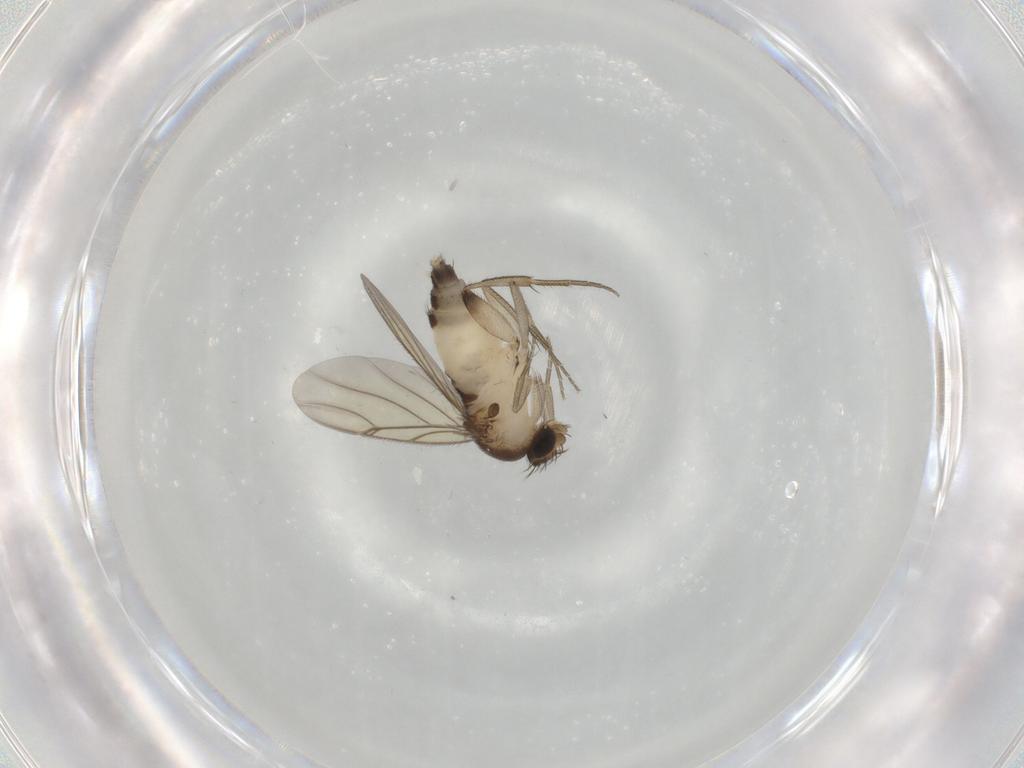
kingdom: Animalia
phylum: Arthropoda
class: Insecta
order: Diptera
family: Phoridae
